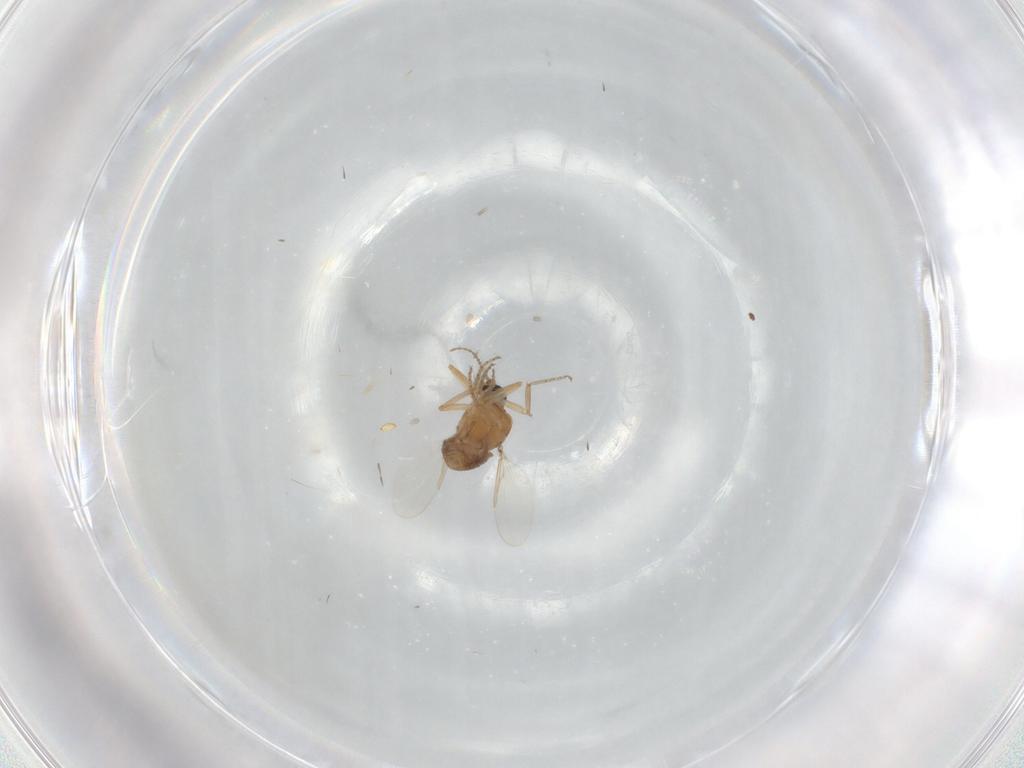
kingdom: Animalia
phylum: Arthropoda
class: Insecta
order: Diptera
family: Ceratopogonidae
